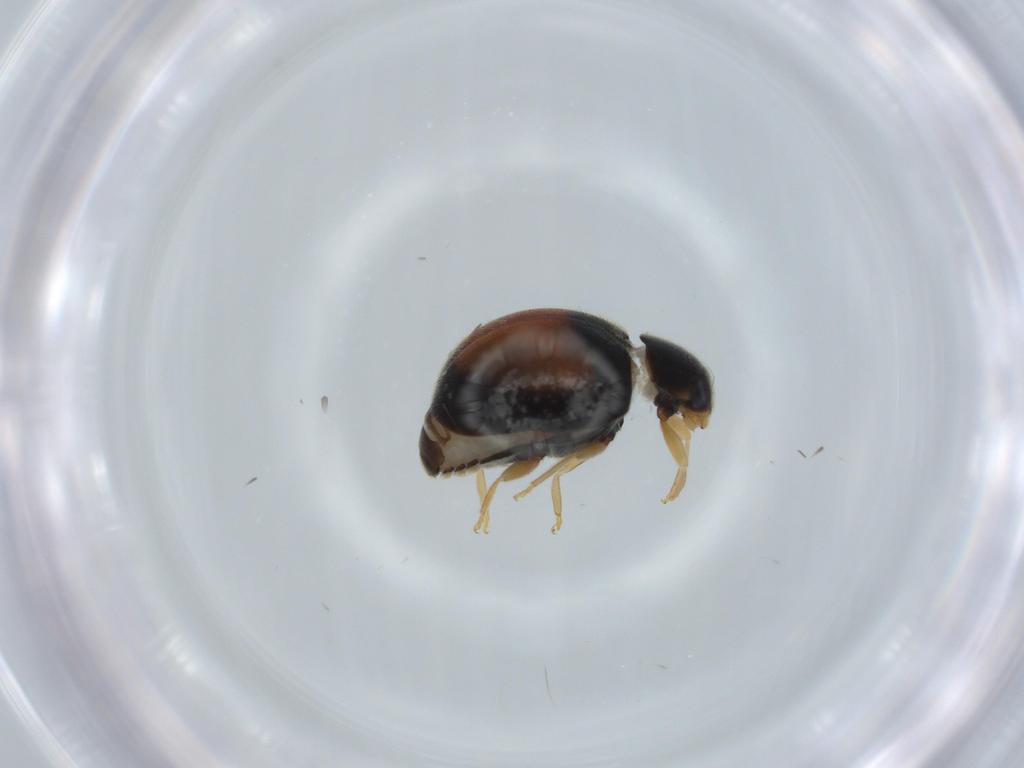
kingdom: Animalia
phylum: Arthropoda
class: Insecta
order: Coleoptera
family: Coccinellidae
